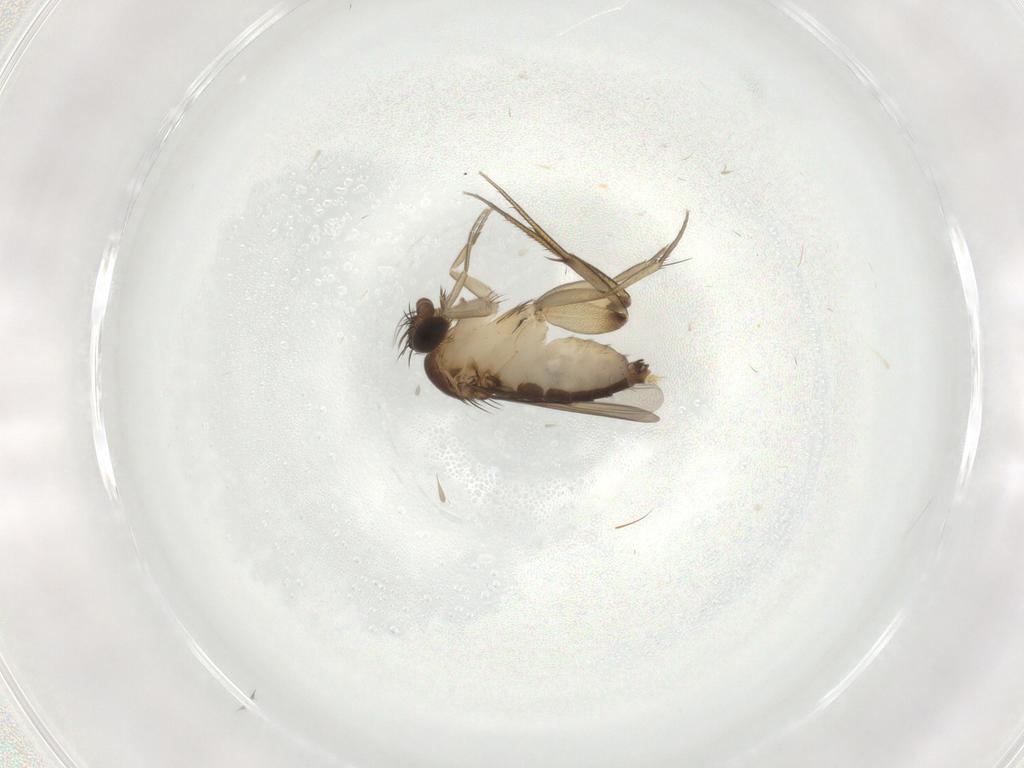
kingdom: Animalia
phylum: Arthropoda
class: Insecta
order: Diptera
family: Phoridae
